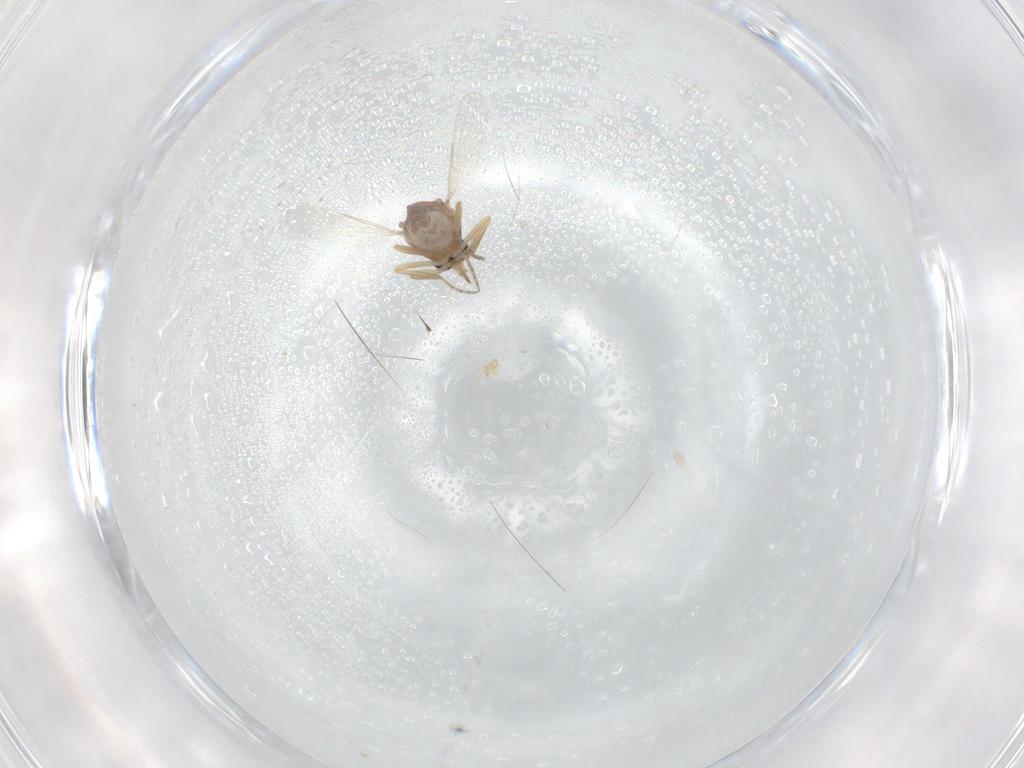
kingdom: Animalia
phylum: Arthropoda
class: Insecta
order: Diptera
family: Ceratopogonidae
